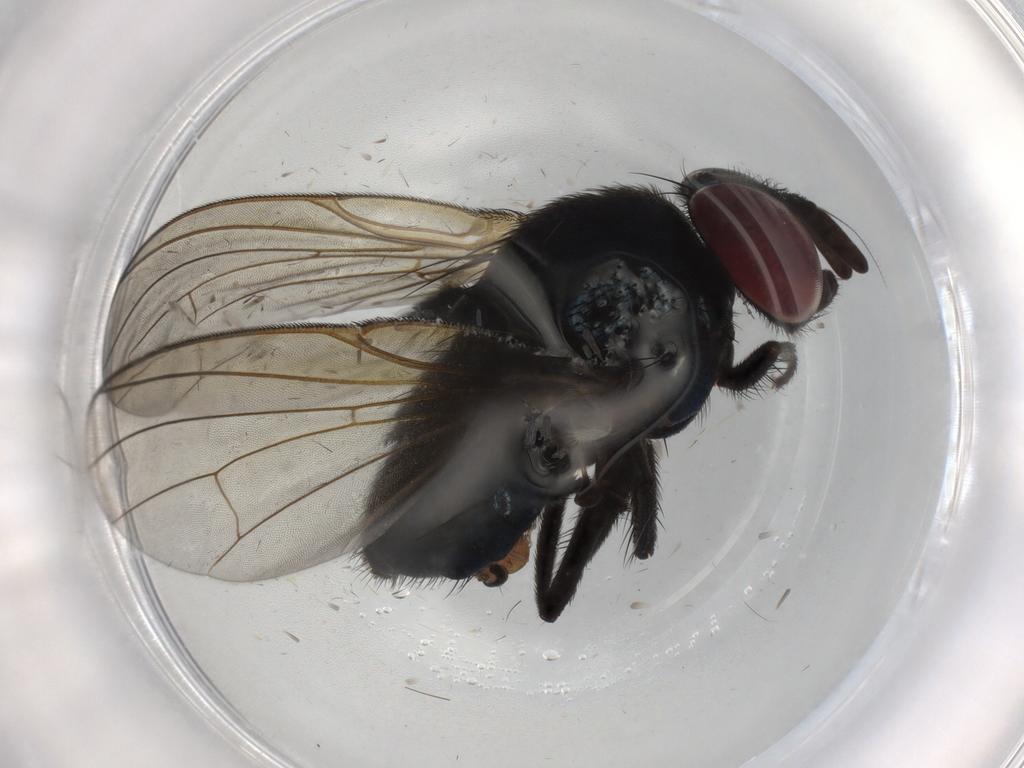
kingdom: Animalia
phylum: Arthropoda
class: Insecta
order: Diptera
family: Ceratopogonidae
